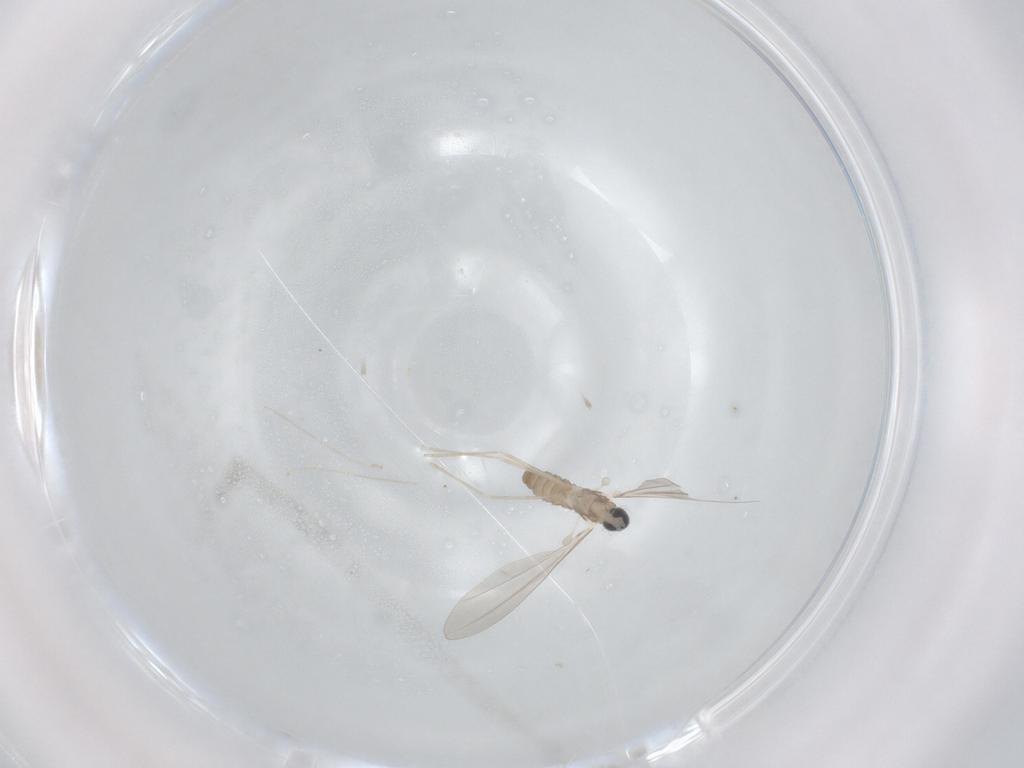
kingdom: Animalia
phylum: Arthropoda
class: Insecta
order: Diptera
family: Cecidomyiidae
